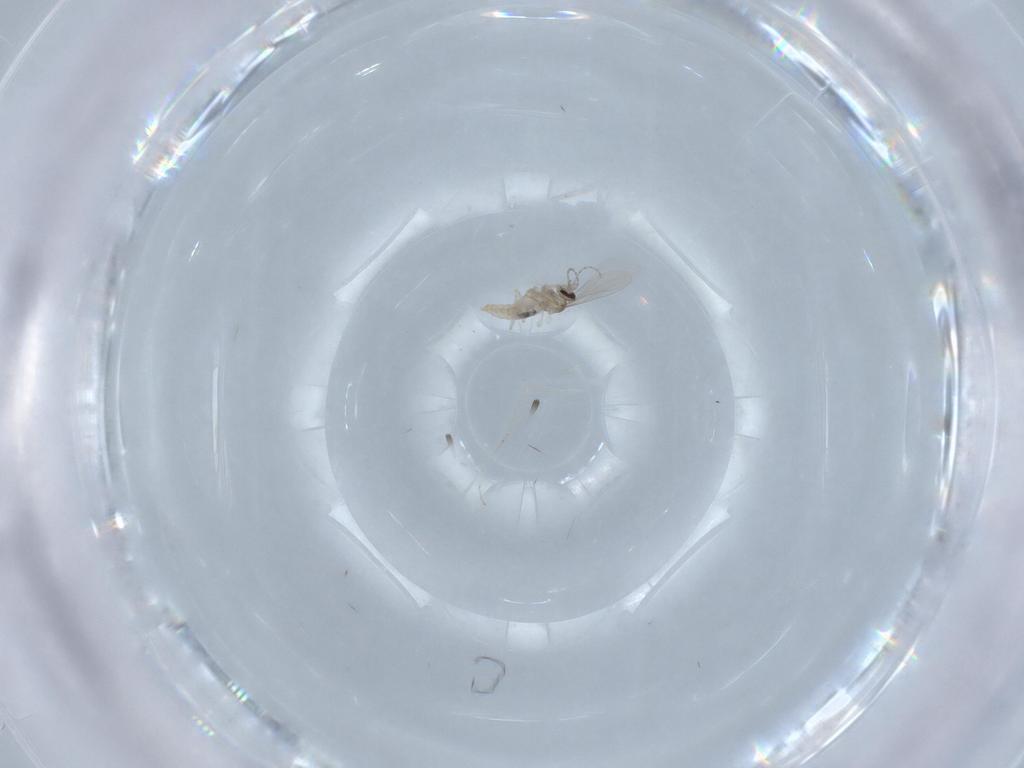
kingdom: Animalia
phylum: Arthropoda
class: Insecta
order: Diptera
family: Cecidomyiidae
